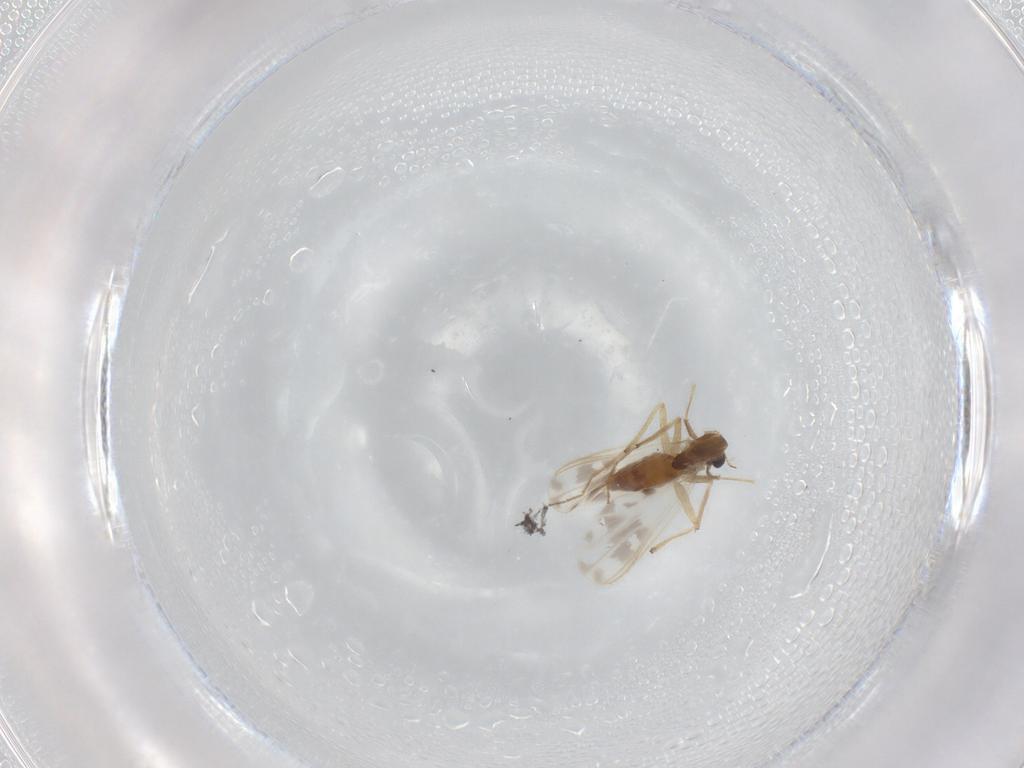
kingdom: Animalia
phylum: Arthropoda
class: Insecta
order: Diptera
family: Chironomidae
